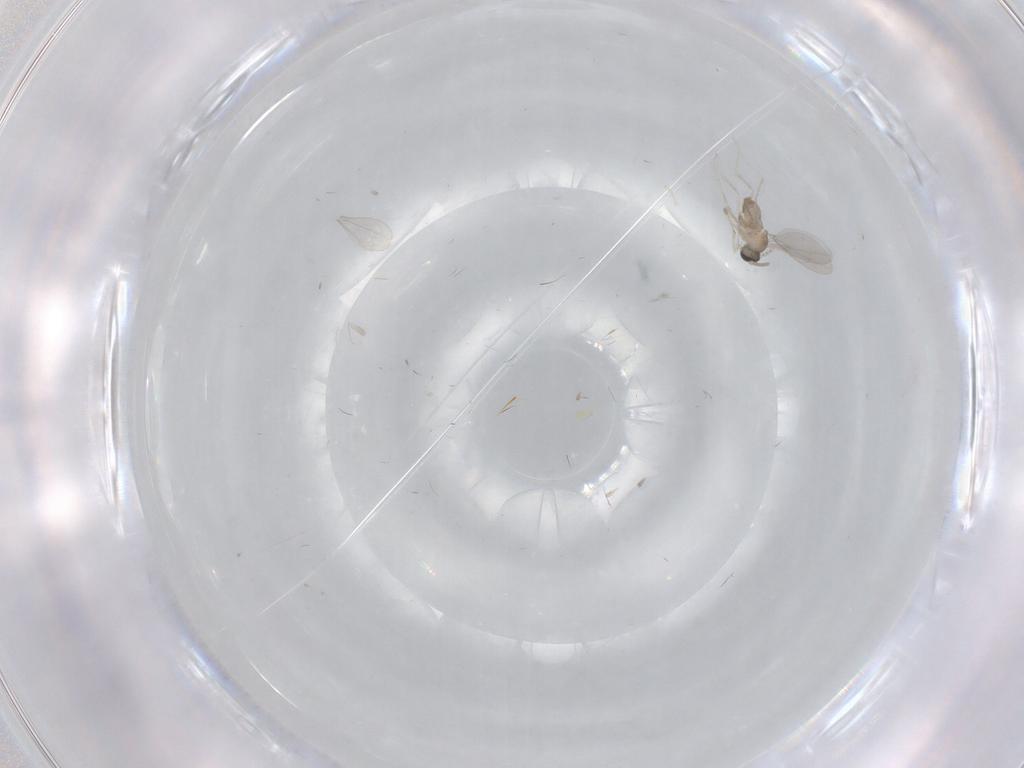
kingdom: Animalia
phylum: Arthropoda
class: Insecta
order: Diptera
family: Cecidomyiidae
